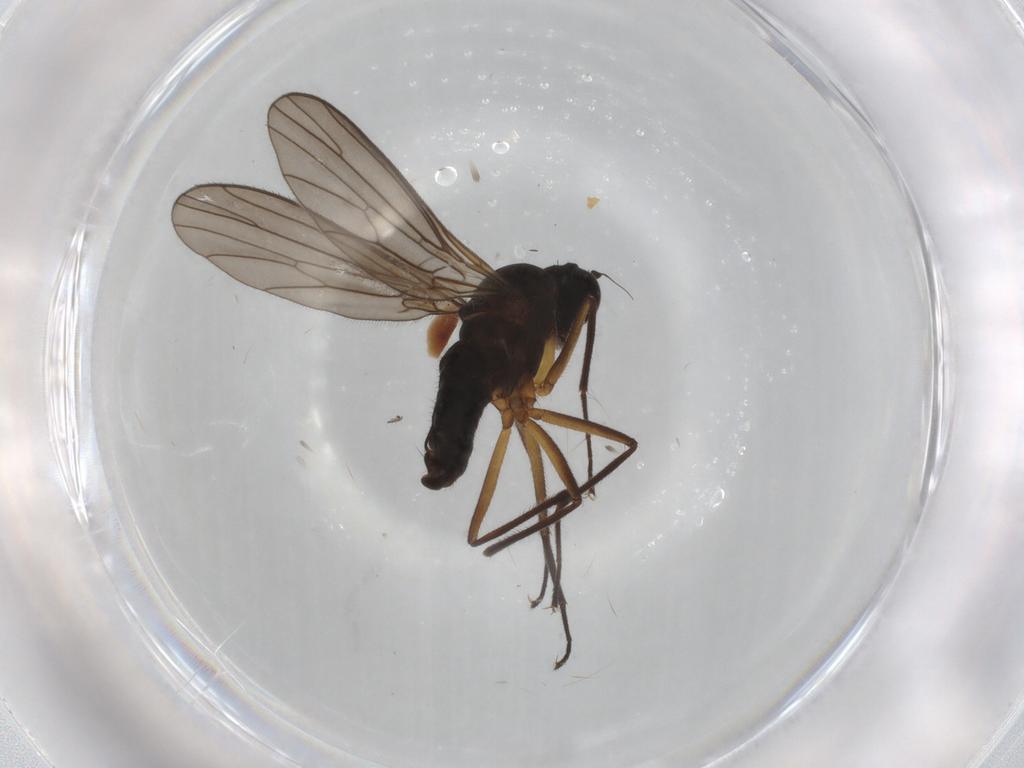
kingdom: Animalia
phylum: Arthropoda
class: Insecta
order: Diptera
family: Empididae
